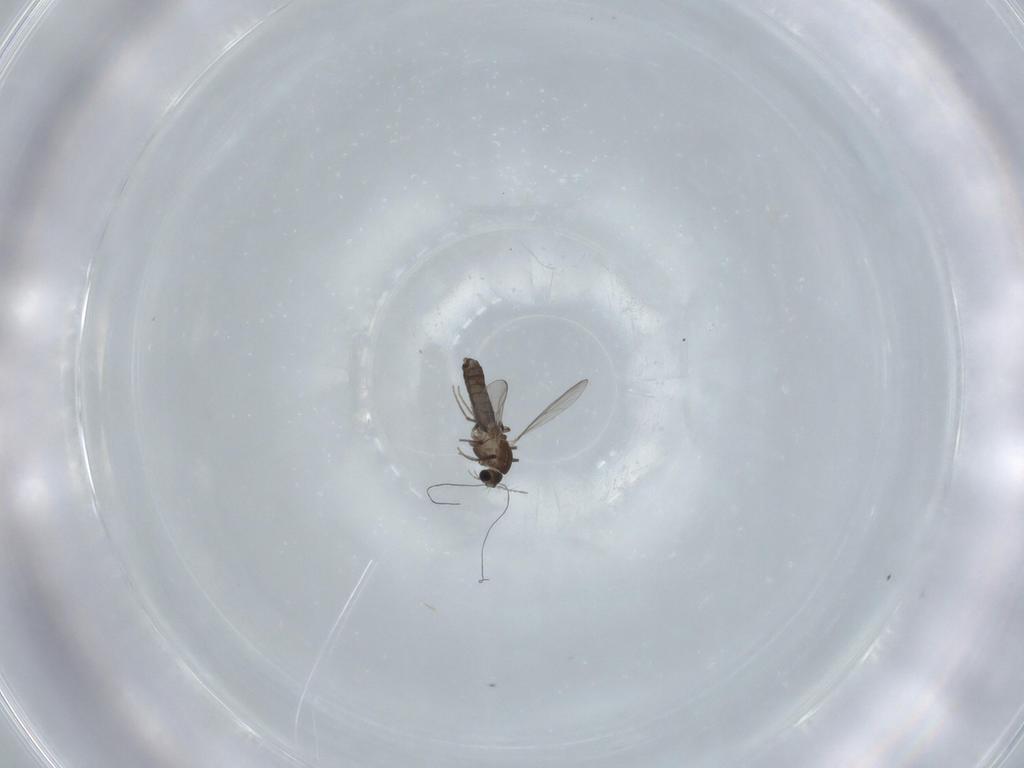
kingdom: Animalia
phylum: Arthropoda
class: Insecta
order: Diptera
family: Chironomidae
